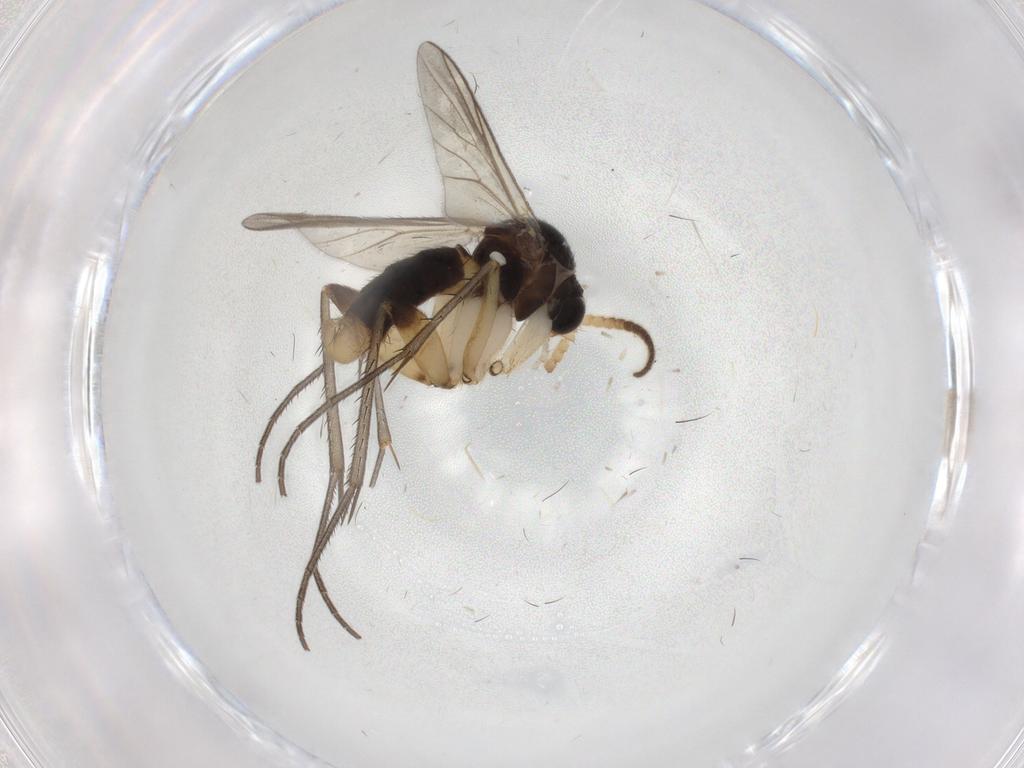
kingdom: Animalia
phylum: Arthropoda
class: Insecta
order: Diptera
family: Mycetophilidae
